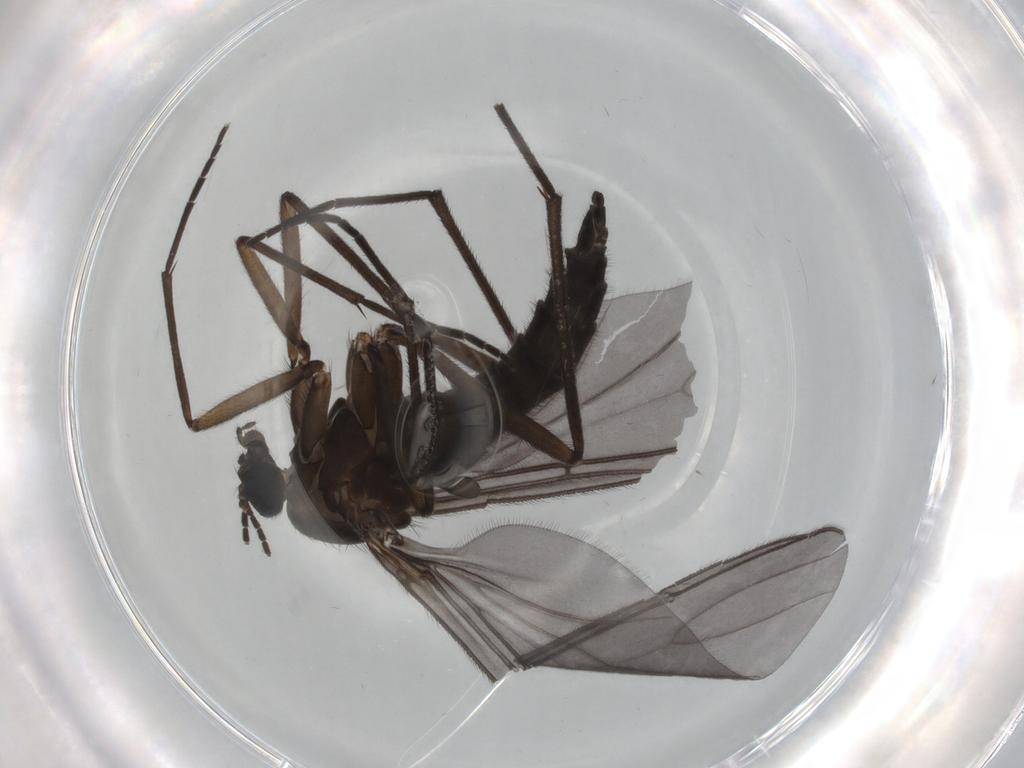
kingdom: Animalia
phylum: Arthropoda
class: Insecta
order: Diptera
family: Sciaridae
